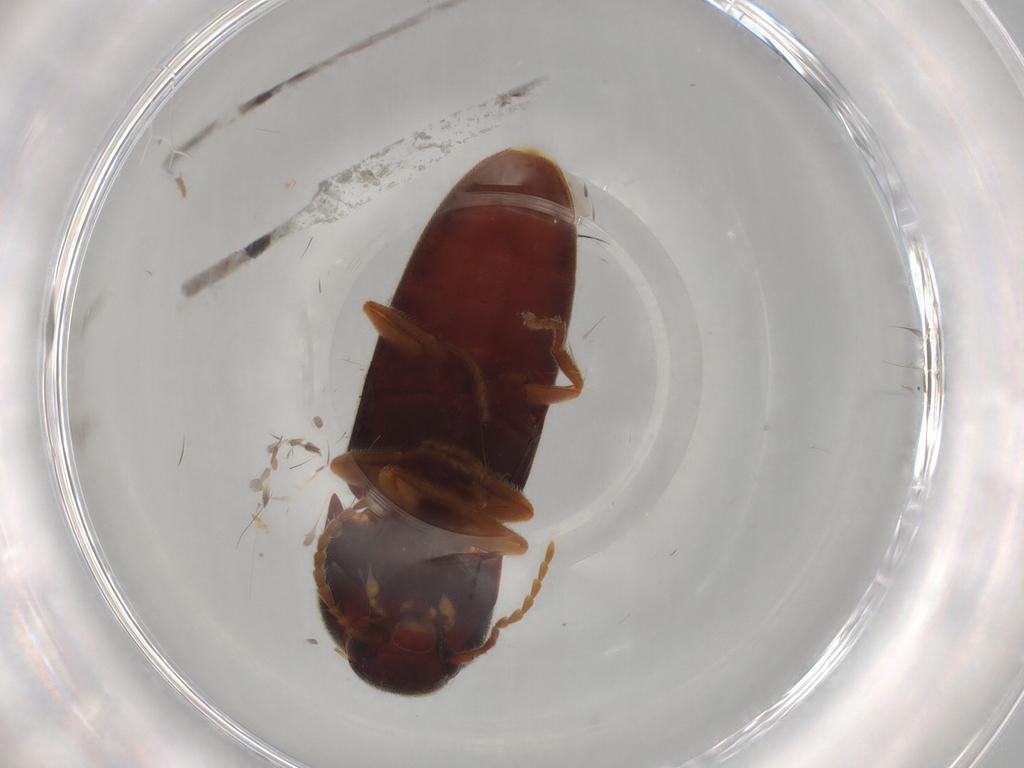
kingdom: Animalia
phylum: Arthropoda
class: Insecta
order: Coleoptera
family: Elateridae
